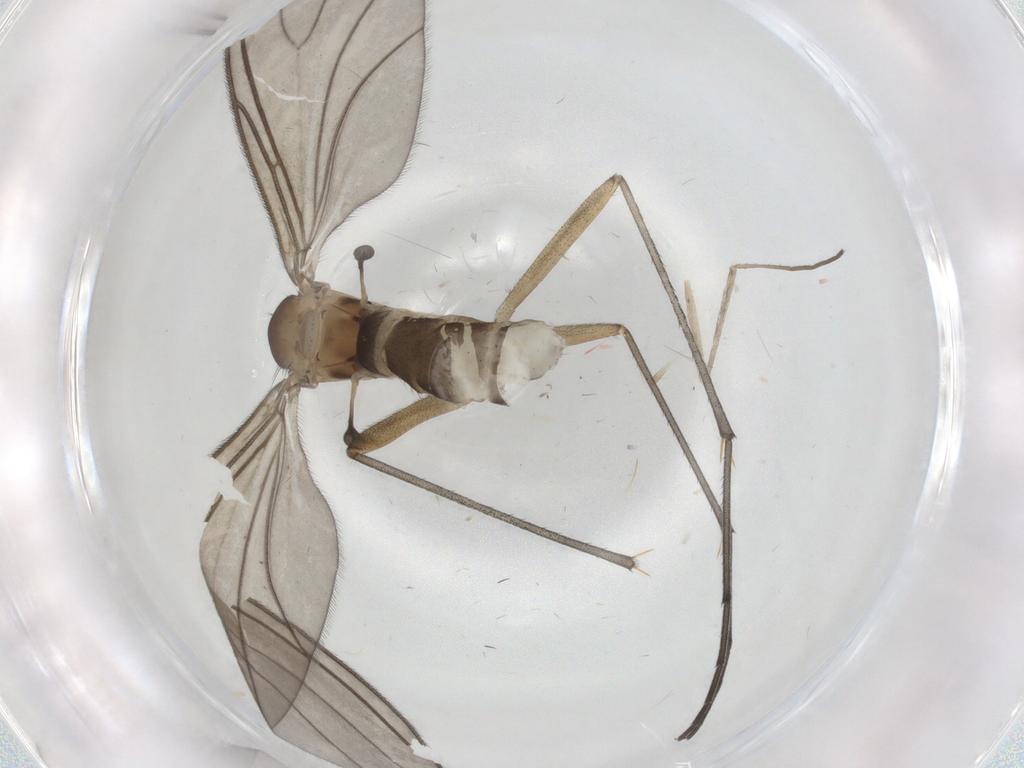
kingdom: Animalia
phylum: Arthropoda
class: Insecta
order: Diptera
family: Sciaridae
